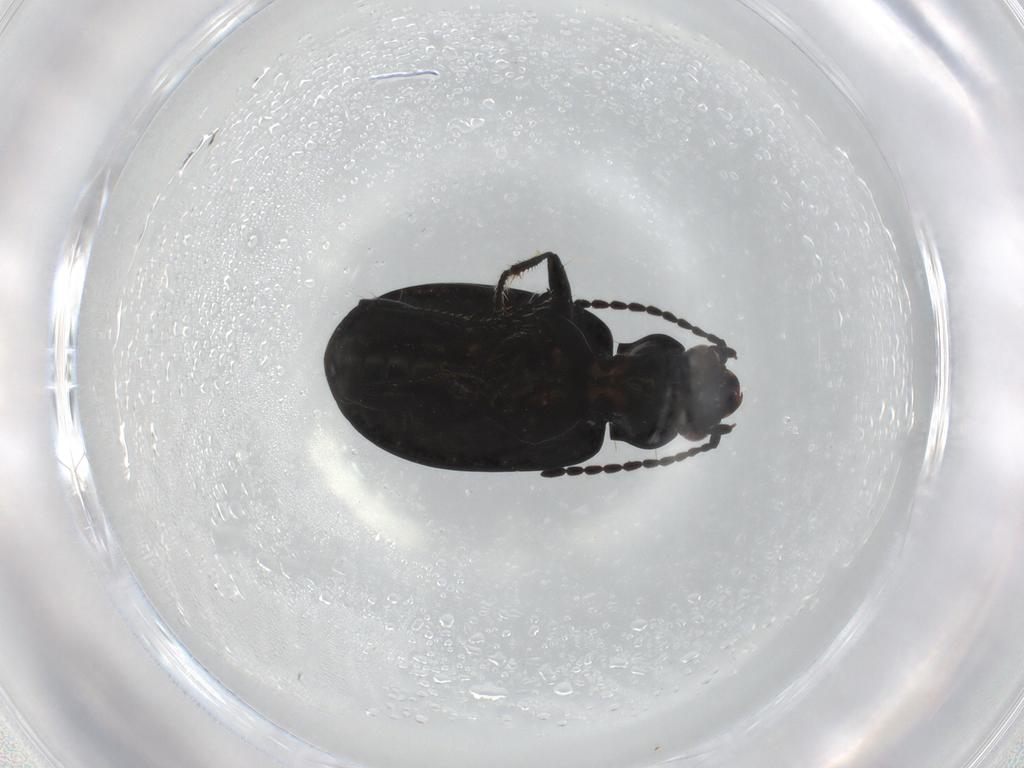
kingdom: Animalia
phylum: Arthropoda
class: Insecta
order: Coleoptera
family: Carabidae
